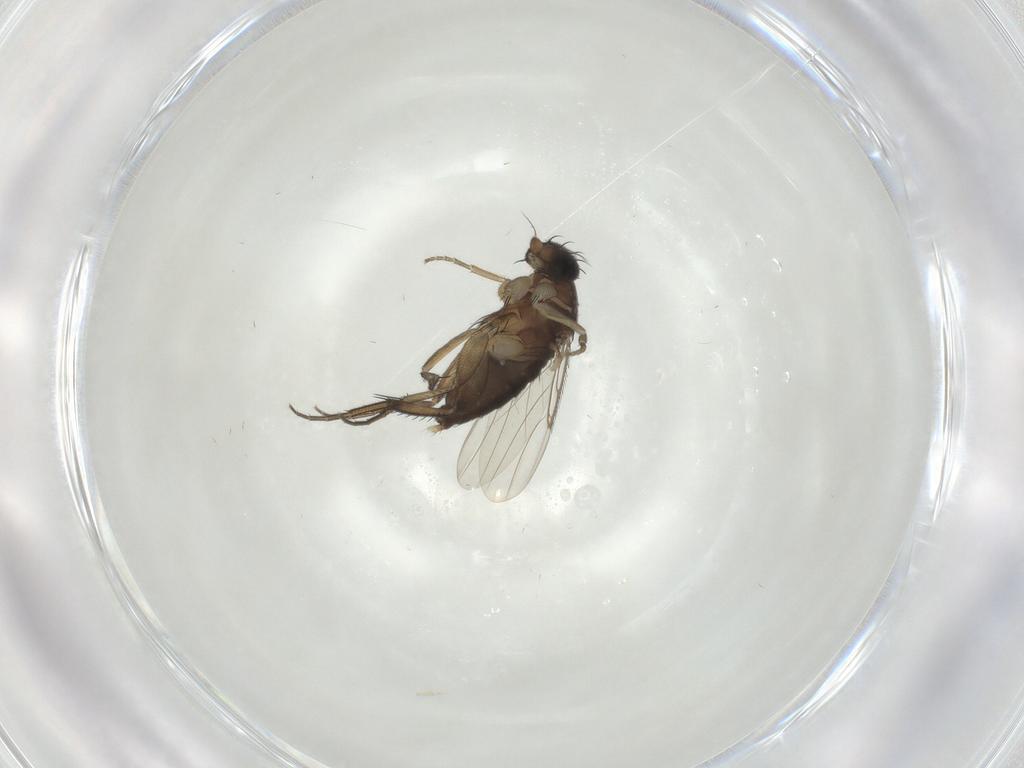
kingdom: Animalia
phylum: Arthropoda
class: Insecta
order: Diptera
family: Phoridae
